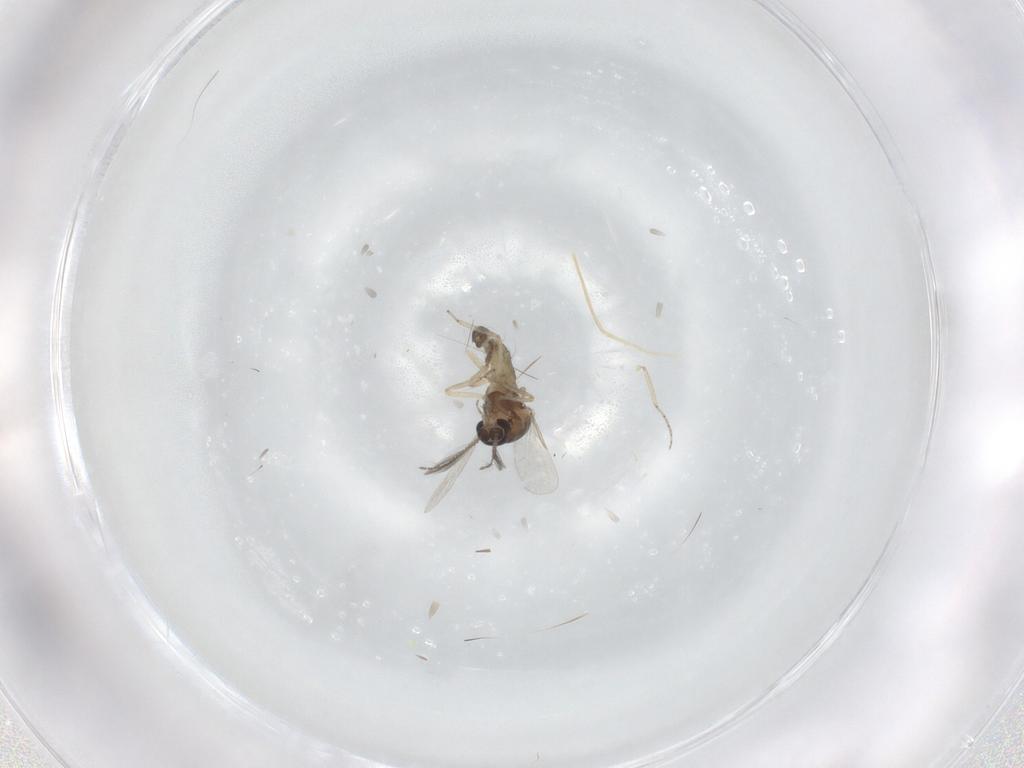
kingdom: Animalia
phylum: Arthropoda
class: Insecta
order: Diptera
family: Ceratopogonidae
